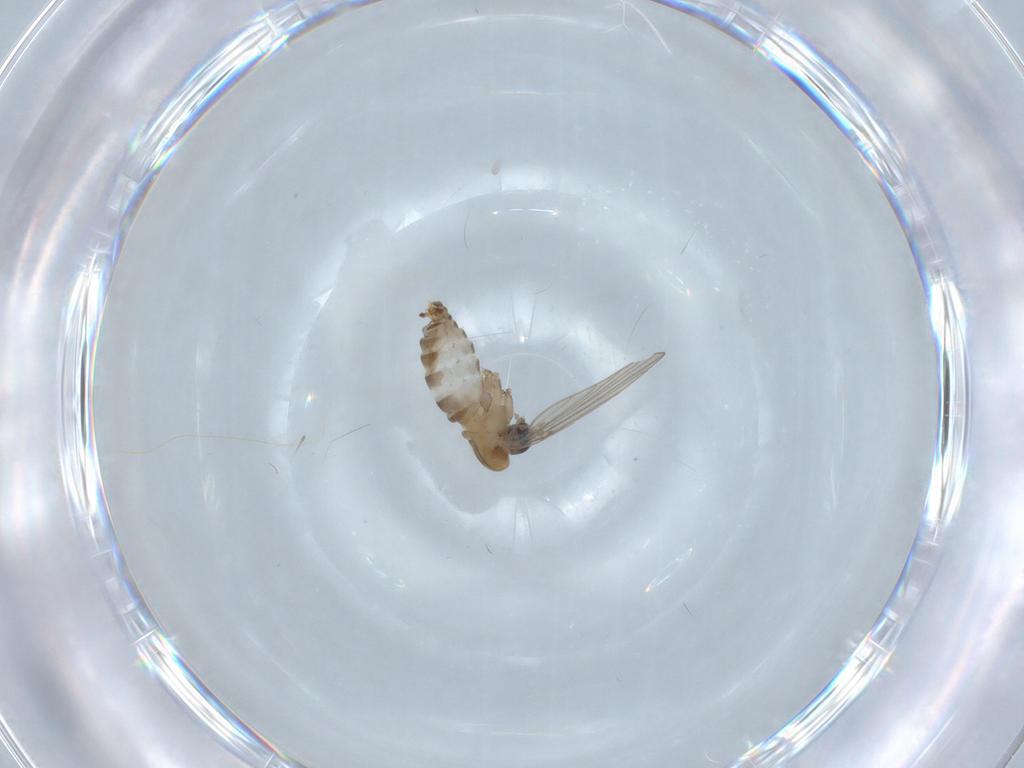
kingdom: Animalia
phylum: Arthropoda
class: Insecta
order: Diptera
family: Psychodidae
